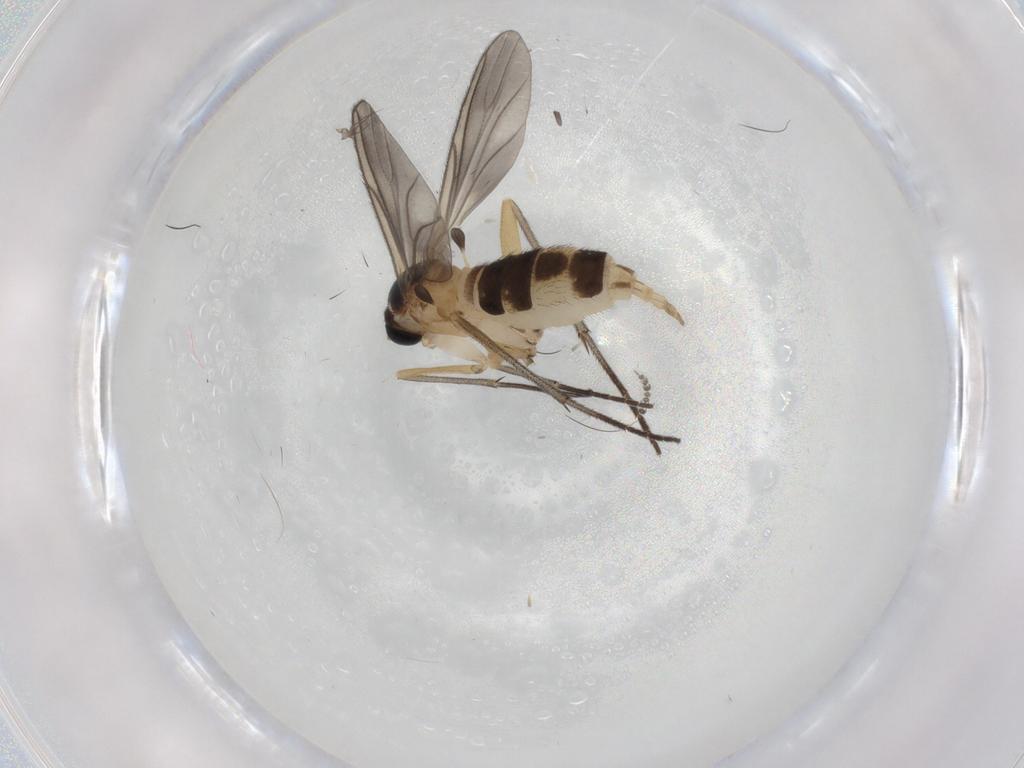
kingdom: Animalia
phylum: Arthropoda
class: Insecta
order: Diptera
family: Sciaridae
